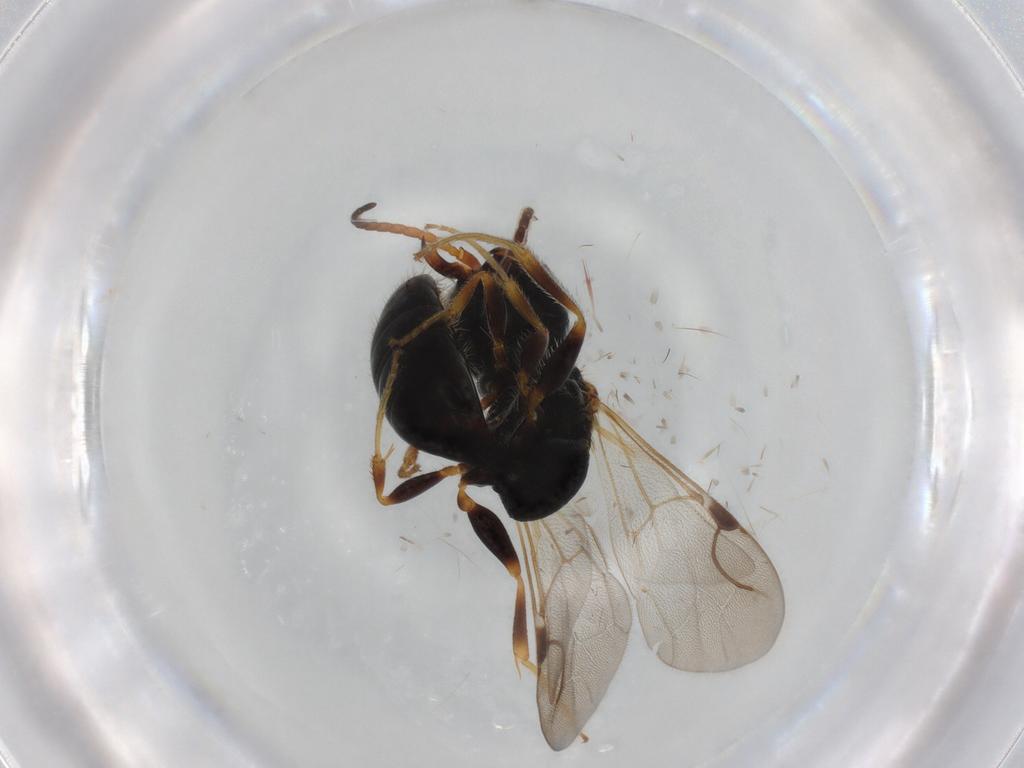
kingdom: Animalia
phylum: Arthropoda
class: Insecta
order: Hymenoptera
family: Bethylidae
